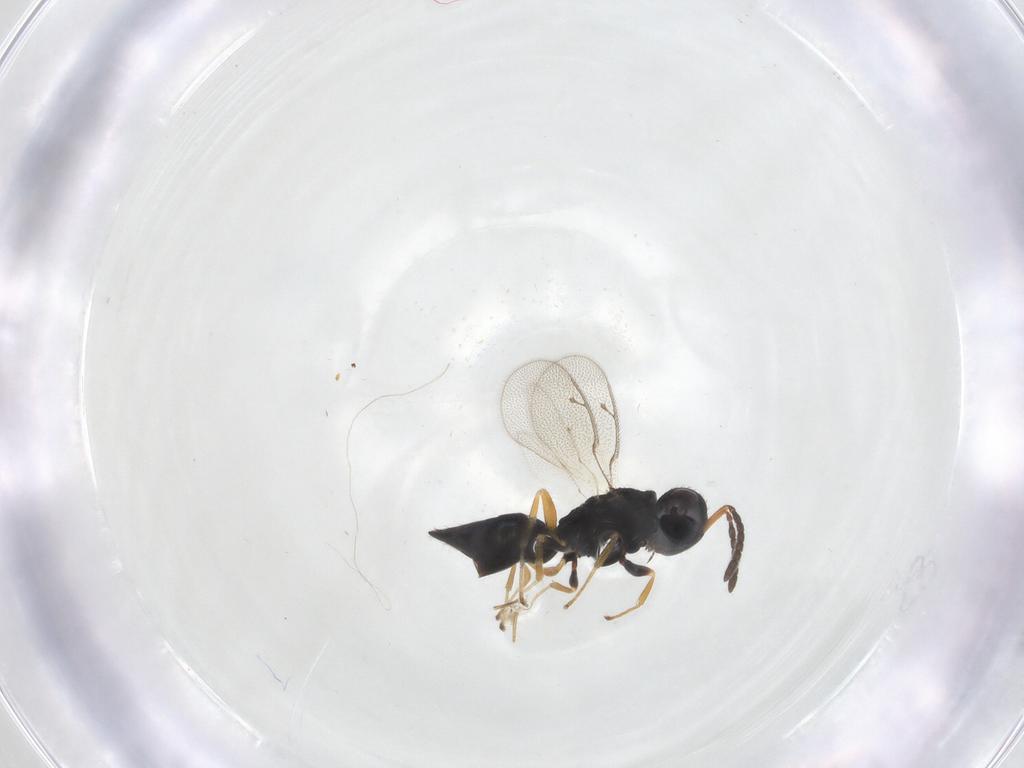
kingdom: Animalia
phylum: Arthropoda
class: Insecta
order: Hymenoptera
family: Pteromalidae
